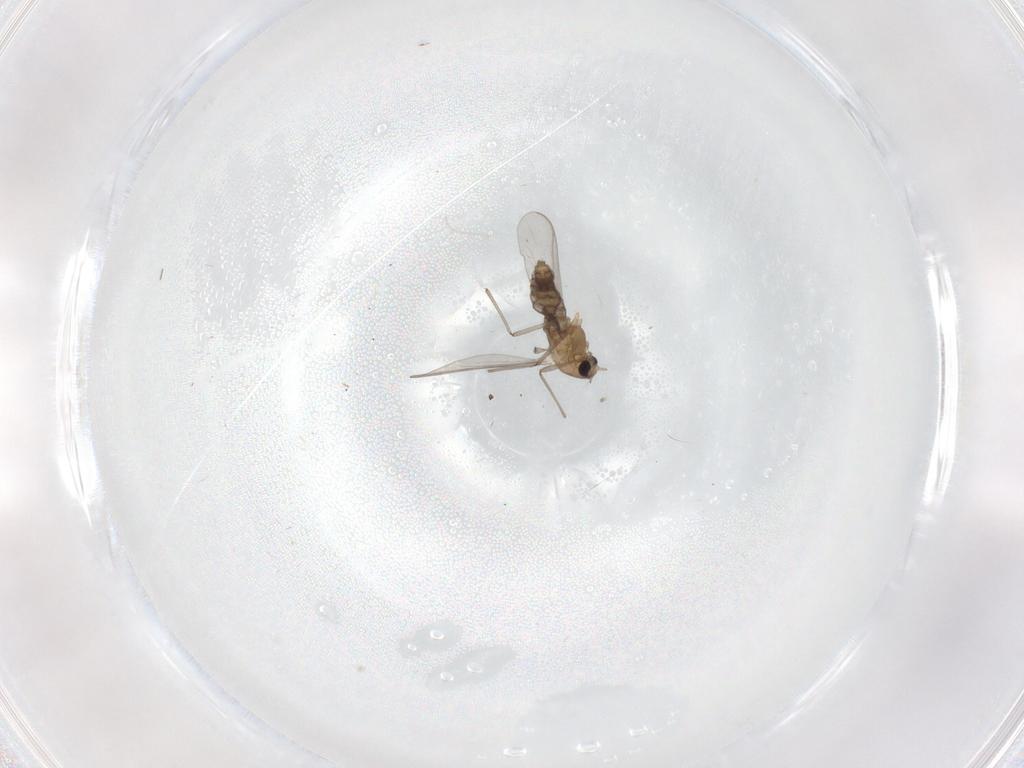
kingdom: Animalia
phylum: Arthropoda
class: Insecta
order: Diptera
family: Chironomidae
